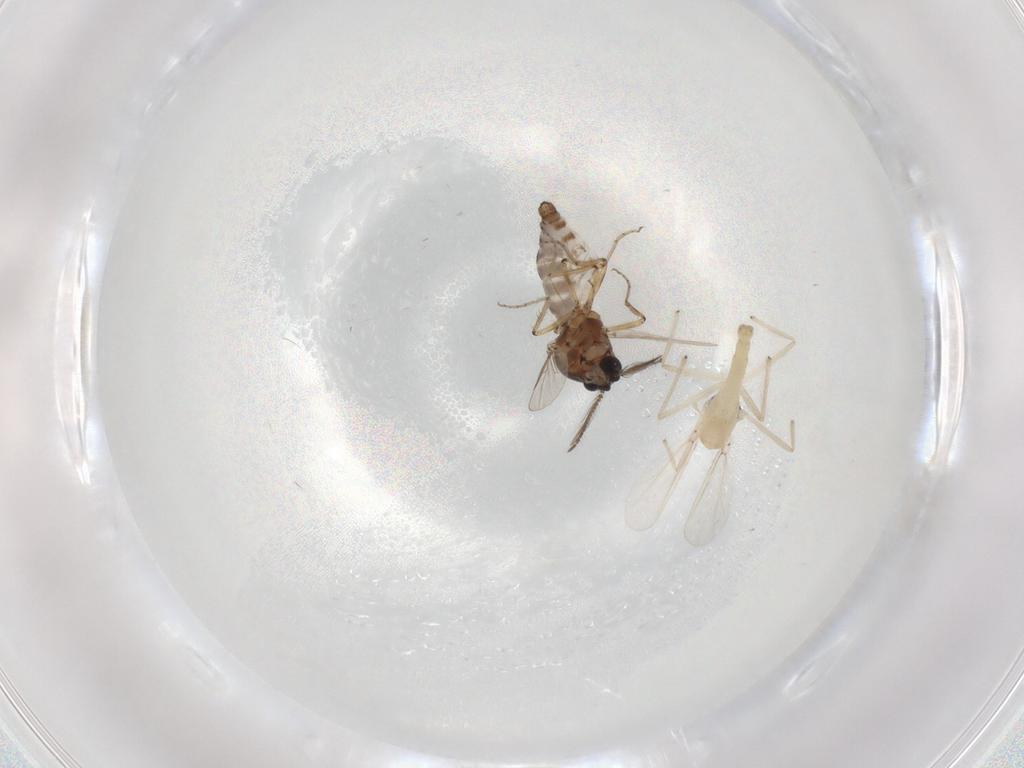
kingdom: Animalia
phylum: Arthropoda
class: Insecta
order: Diptera
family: Ceratopogonidae
